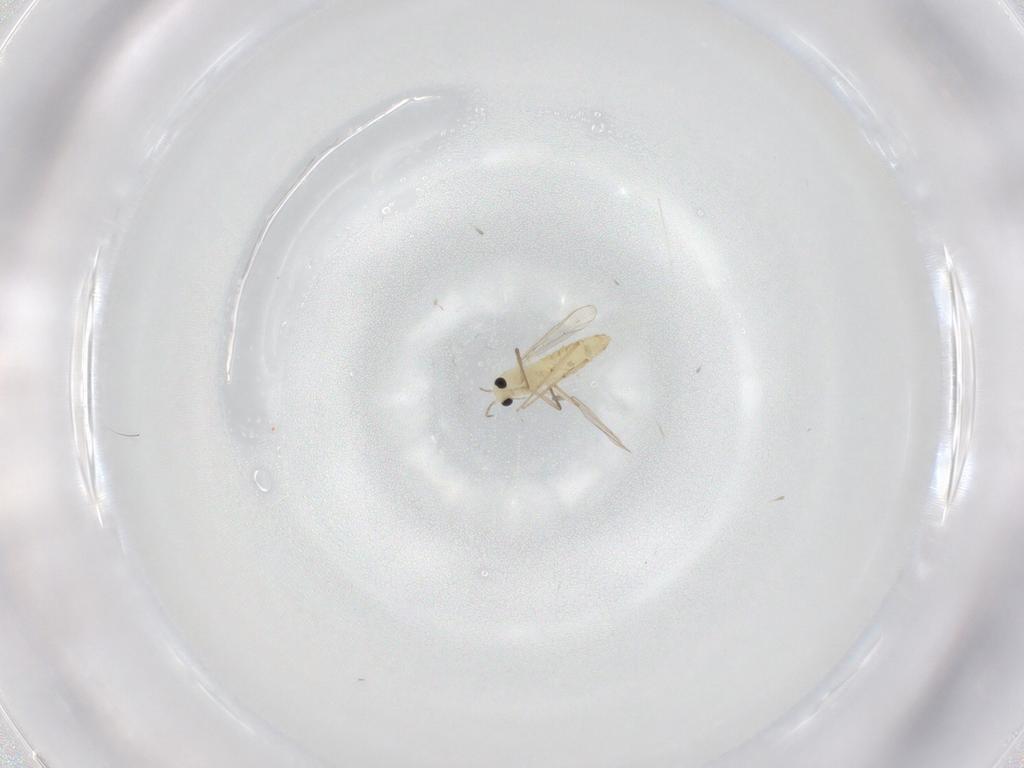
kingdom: Animalia
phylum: Arthropoda
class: Insecta
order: Diptera
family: Chironomidae
